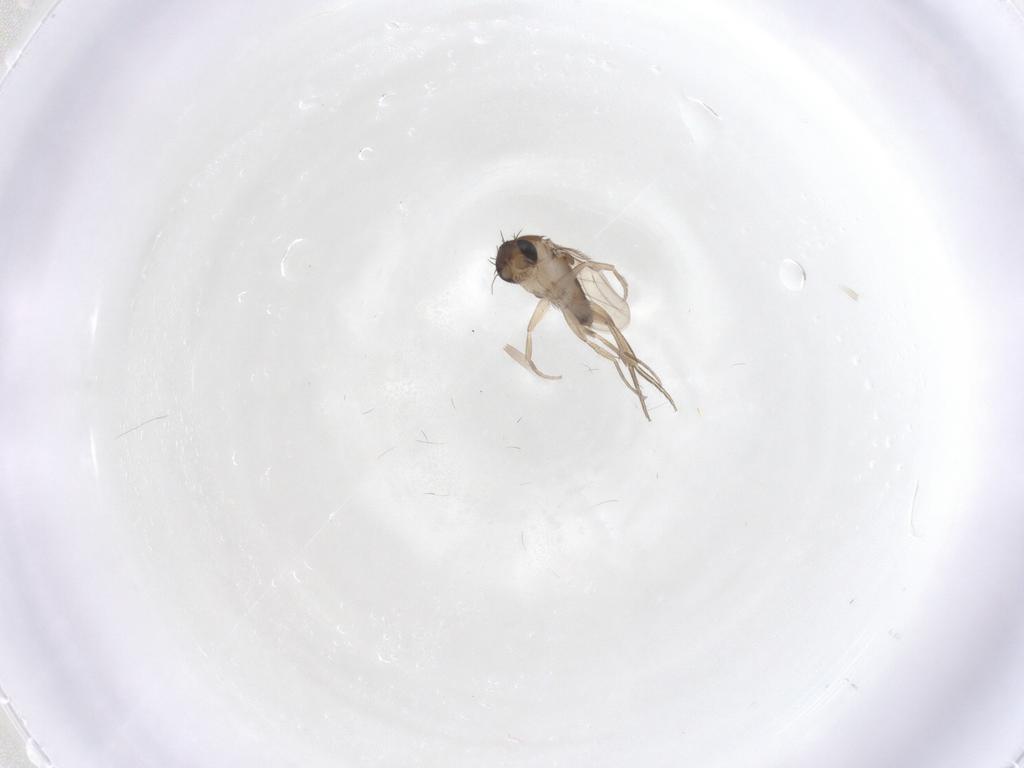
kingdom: Animalia
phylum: Arthropoda
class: Insecta
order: Diptera
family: Phoridae
